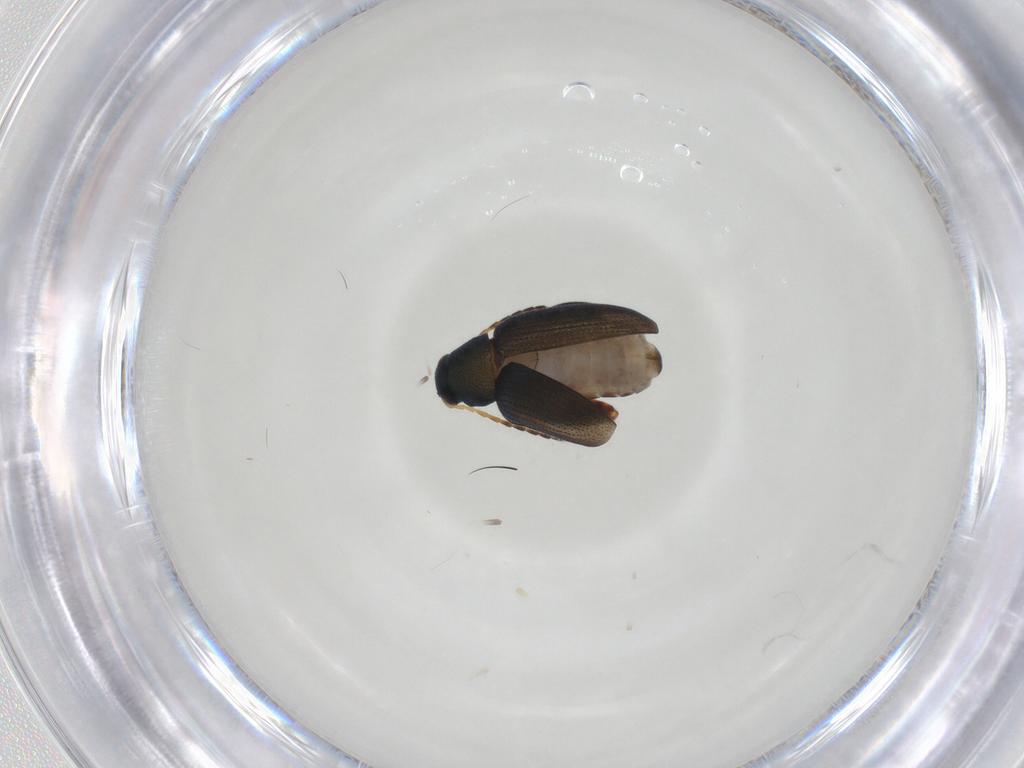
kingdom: Animalia
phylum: Arthropoda
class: Insecta
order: Coleoptera
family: Chrysomelidae
